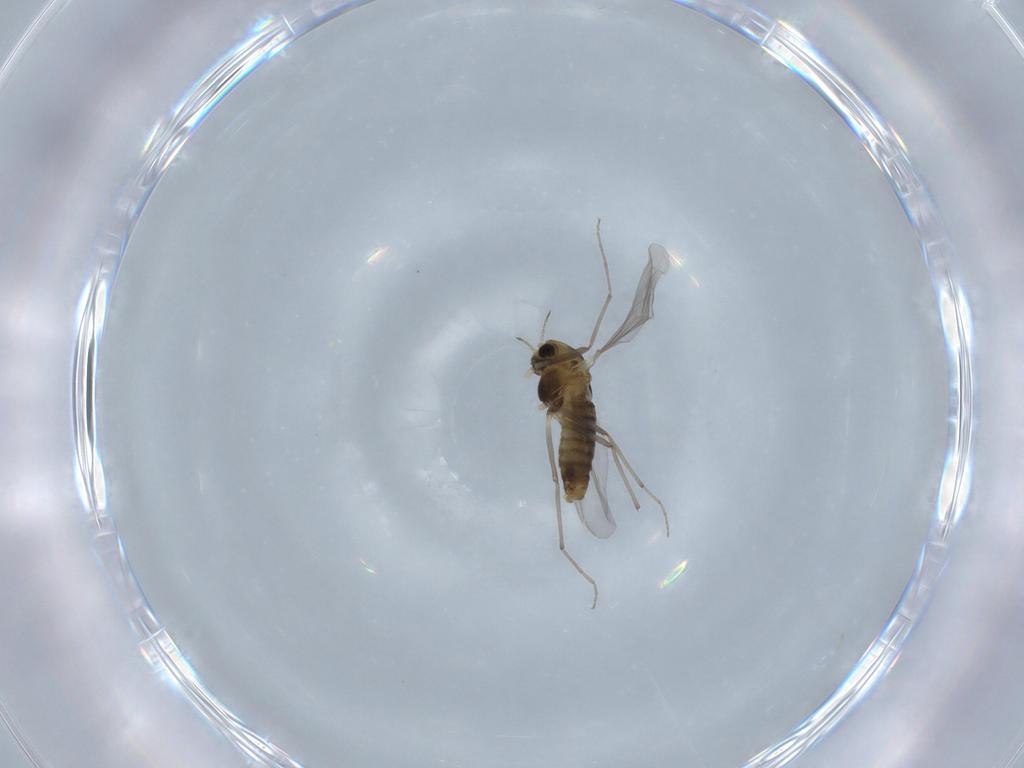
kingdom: Animalia
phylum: Arthropoda
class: Insecta
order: Diptera
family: Chironomidae
